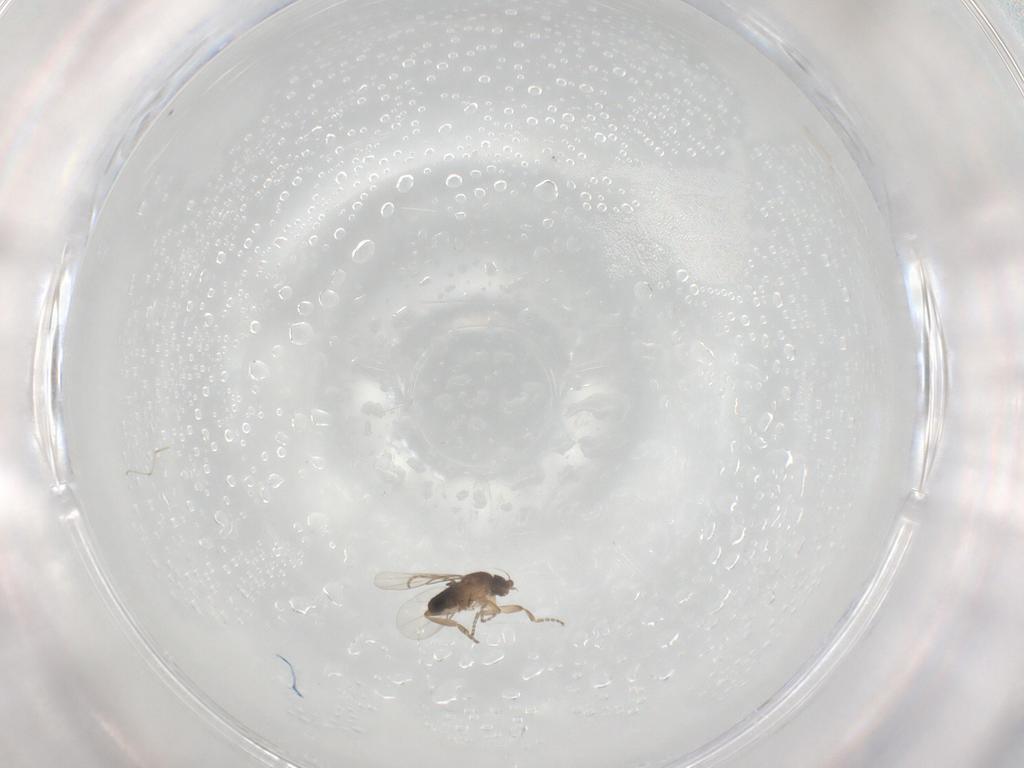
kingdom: Animalia
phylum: Arthropoda
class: Insecta
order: Diptera
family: Phoridae
